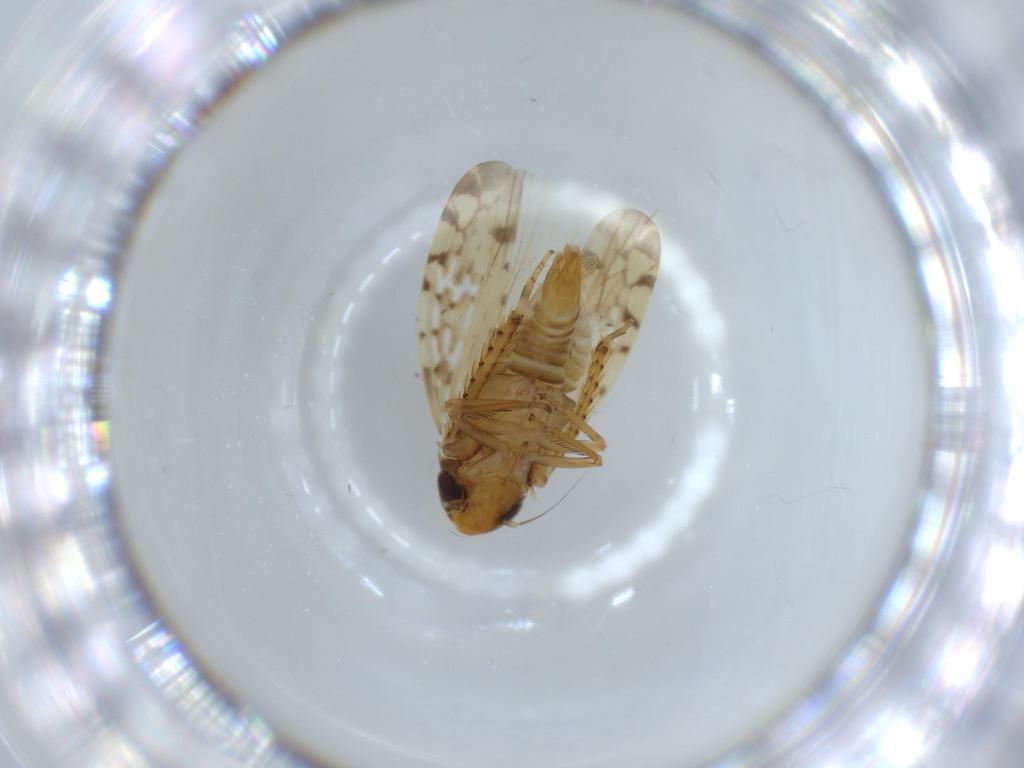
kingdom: Animalia
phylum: Arthropoda
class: Insecta
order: Hemiptera
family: Cicadellidae
